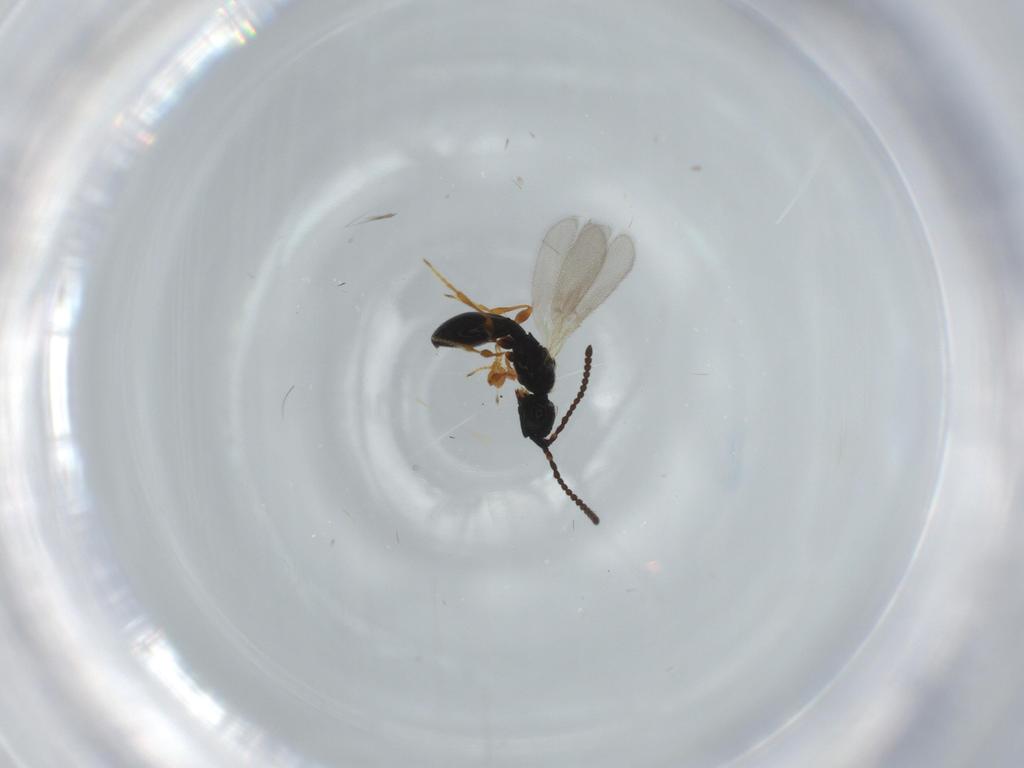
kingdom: Animalia
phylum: Arthropoda
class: Insecta
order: Hymenoptera
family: Diapriidae
